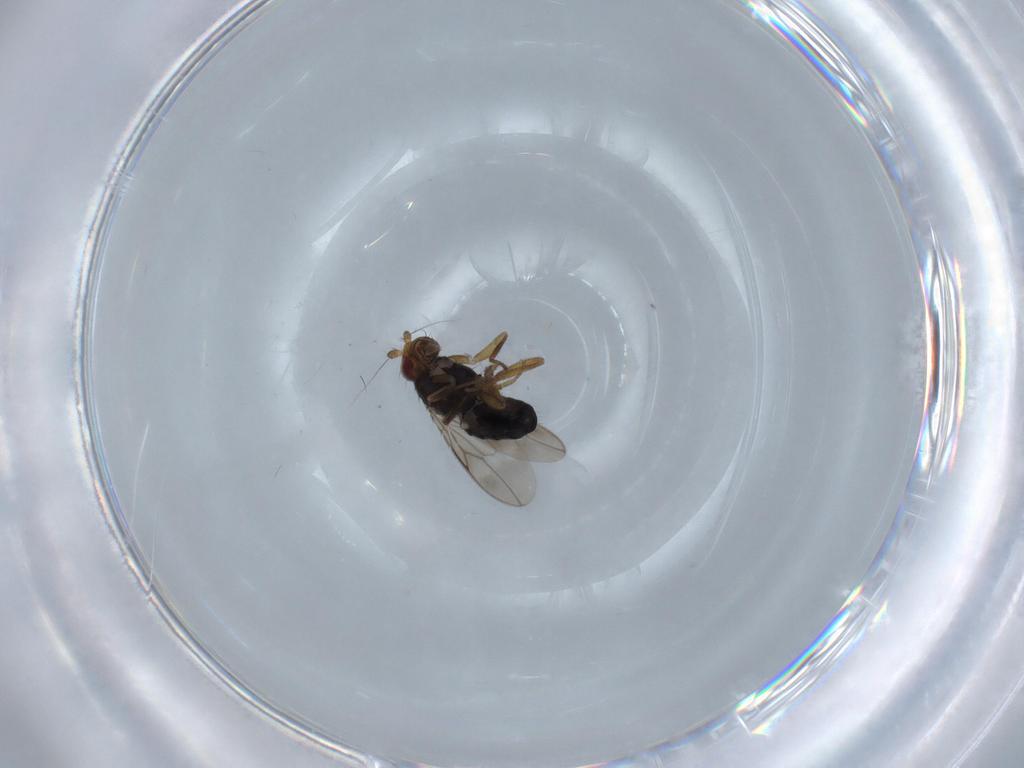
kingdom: Animalia
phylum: Arthropoda
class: Insecta
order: Diptera
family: Sphaeroceridae
